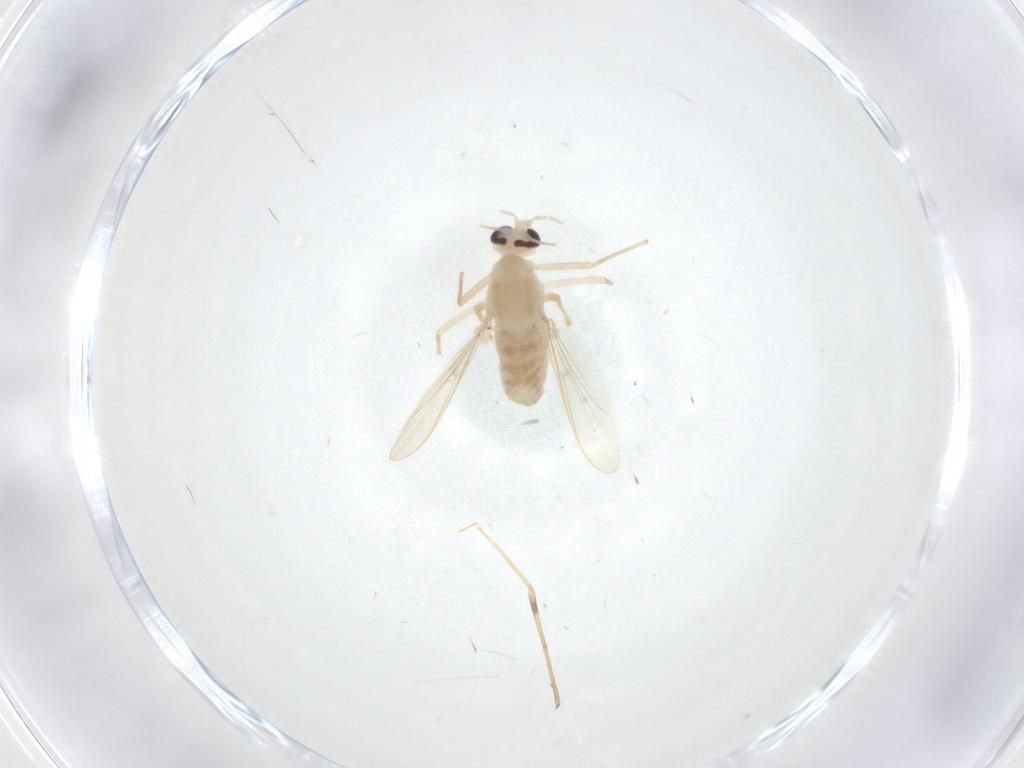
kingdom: Animalia
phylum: Arthropoda
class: Insecta
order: Diptera
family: Chironomidae
